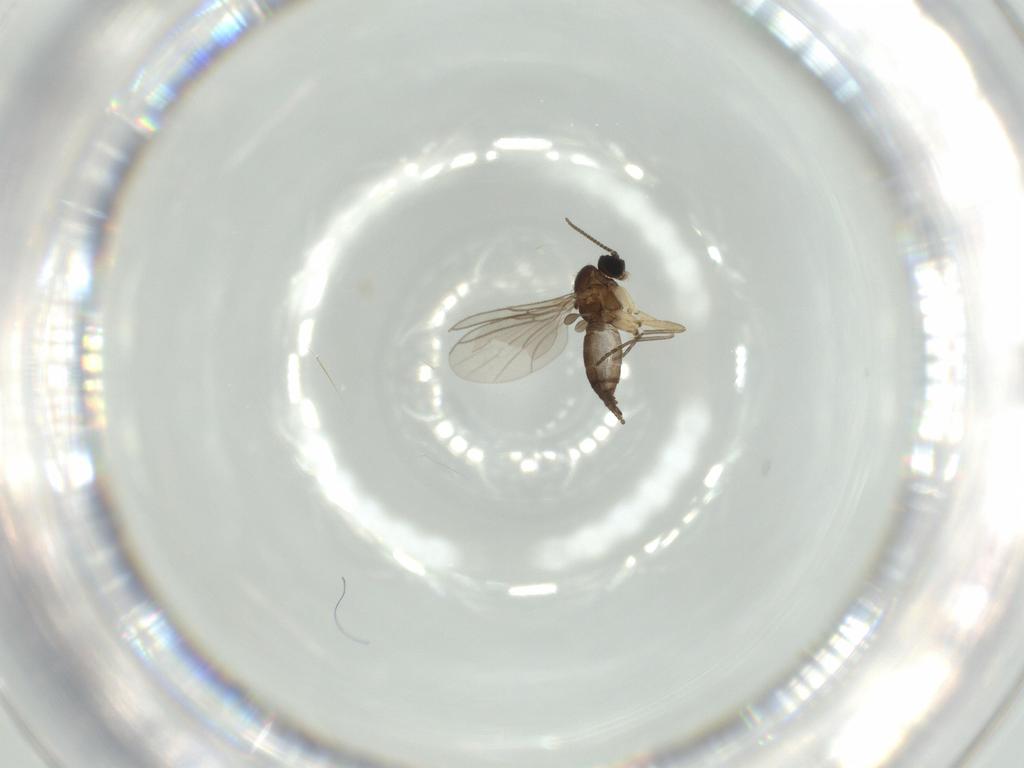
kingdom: Animalia
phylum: Arthropoda
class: Insecta
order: Diptera
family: Sciaridae
